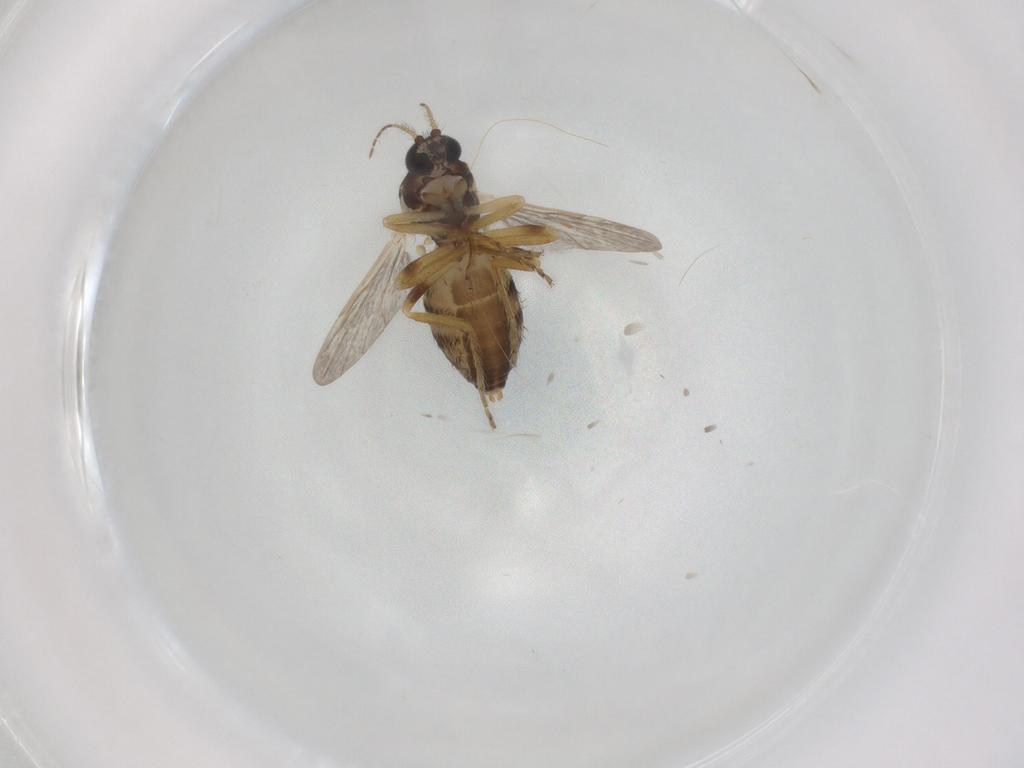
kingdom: Animalia
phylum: Arthropoda
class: Insecta
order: Diptera
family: Ceratopogonidae
